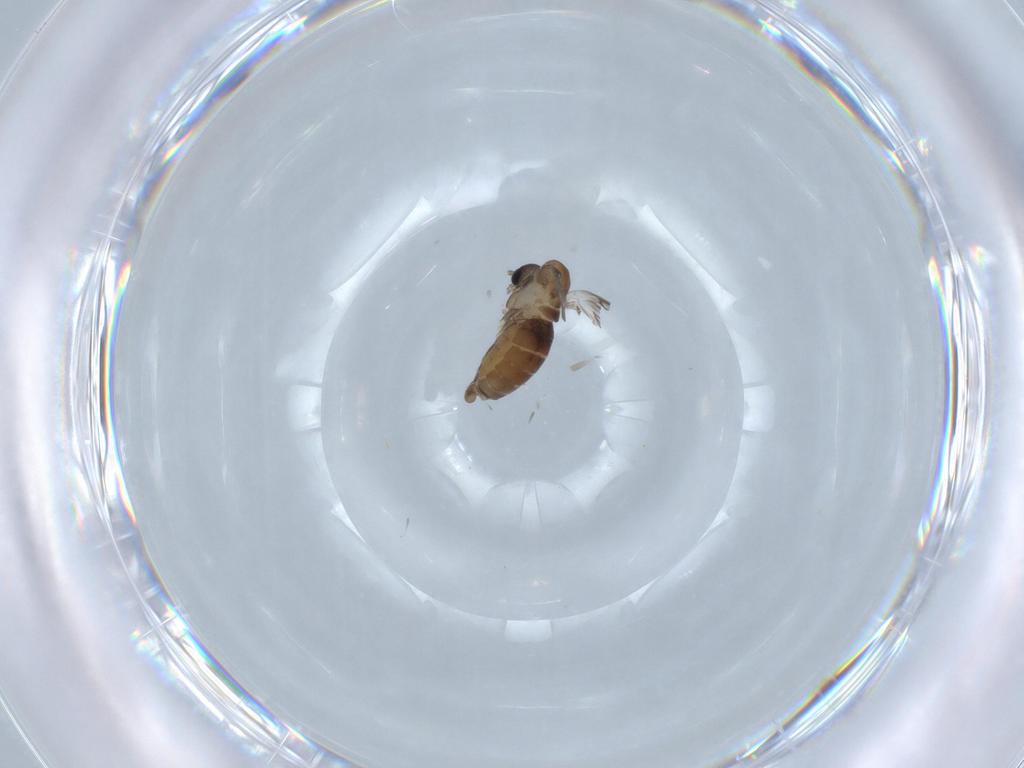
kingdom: Animalia
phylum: Arthropoda
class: Insecta
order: Diptera
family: Psychodidae
